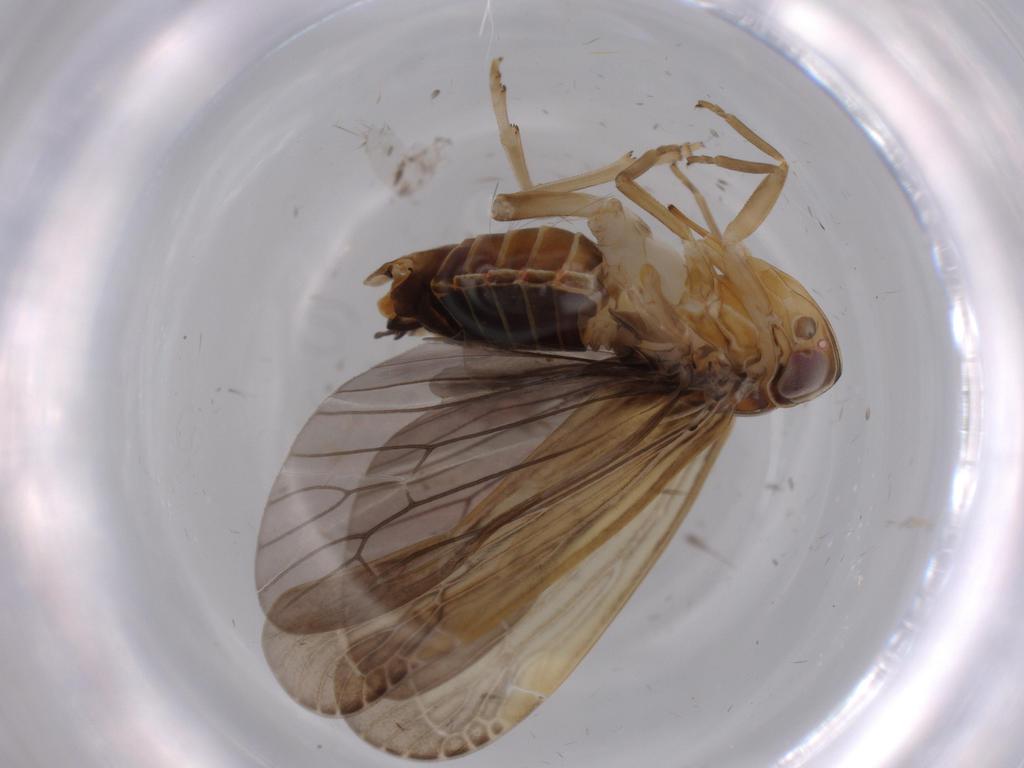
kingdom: Animalia
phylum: Arthropoda
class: Insecta
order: Hemiptera
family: Achilidae
